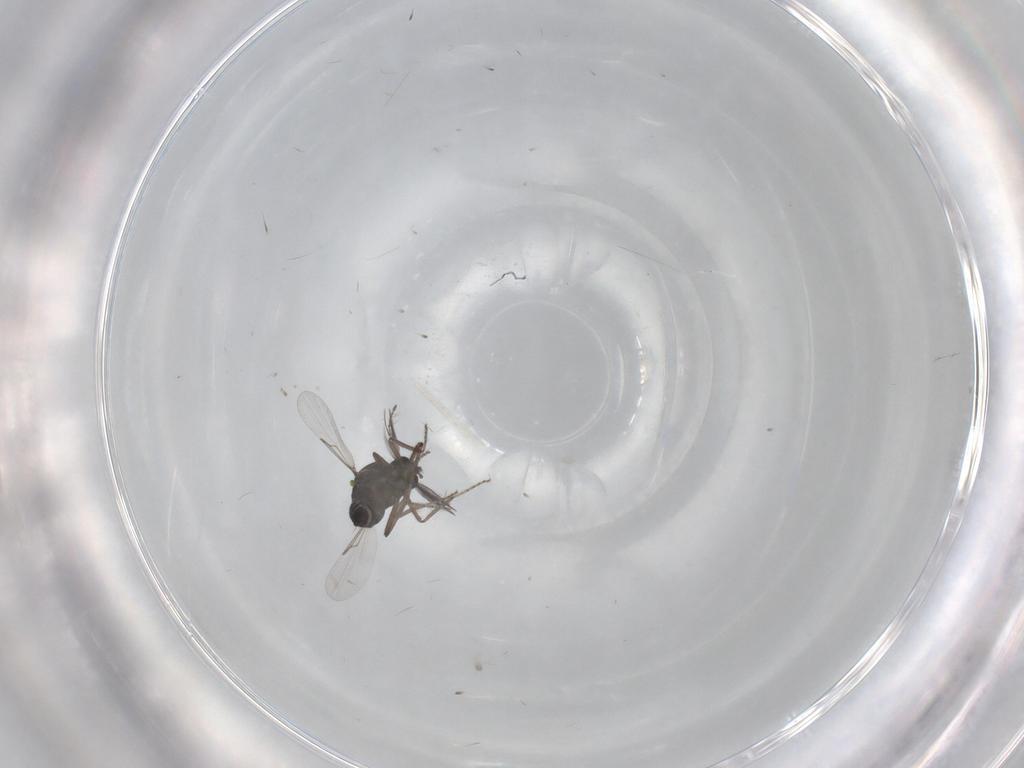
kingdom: Animalia
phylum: Arthropoda
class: Insecta
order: Diptera
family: Ceratopogonidae
